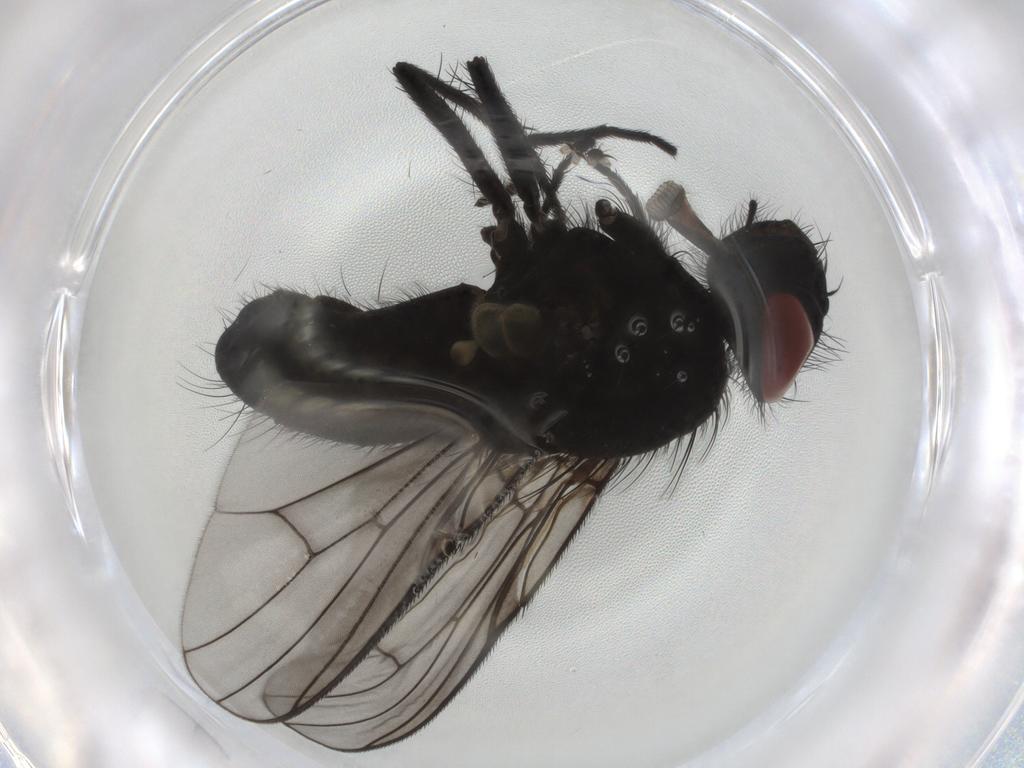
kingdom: Animalia
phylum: Arthropoda
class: Insecta
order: Diptera
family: Muscidae
